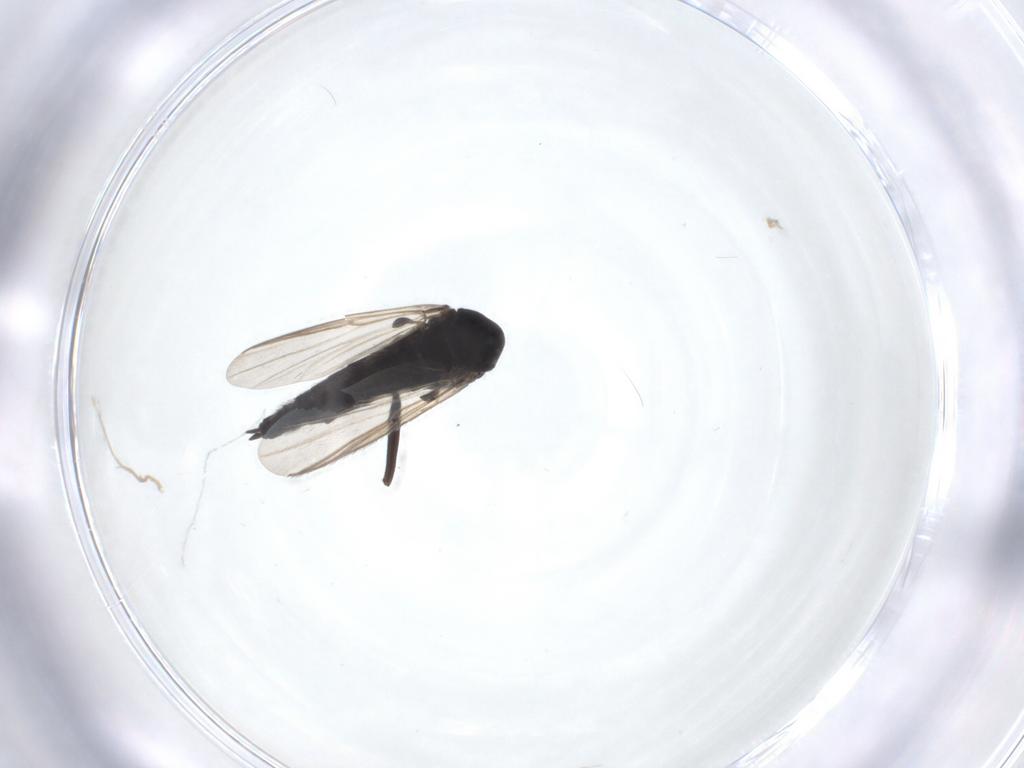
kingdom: Animalia
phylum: Arthropoda
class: Insecta
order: Diptera
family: Chironomidae
